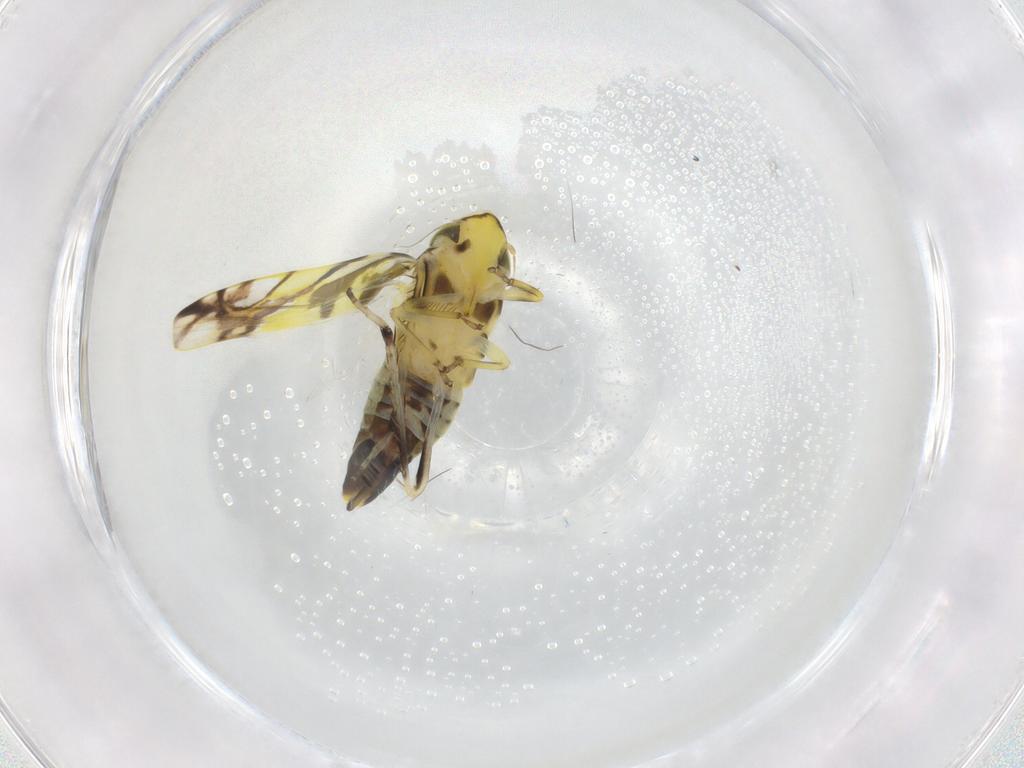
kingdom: Animalia
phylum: Arthropoda
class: Insecta
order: Hemiptera
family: Cicadellidae
